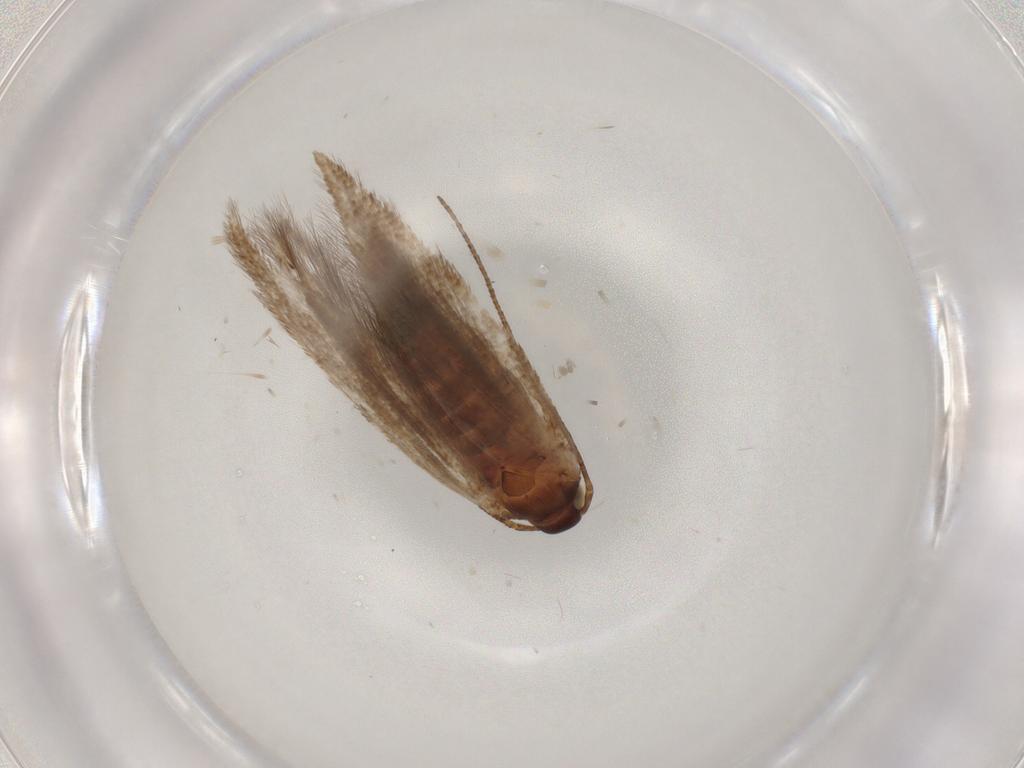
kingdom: Animalia
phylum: Arthropoda
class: Insecta
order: Lepidoptera
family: Gelechiidae
